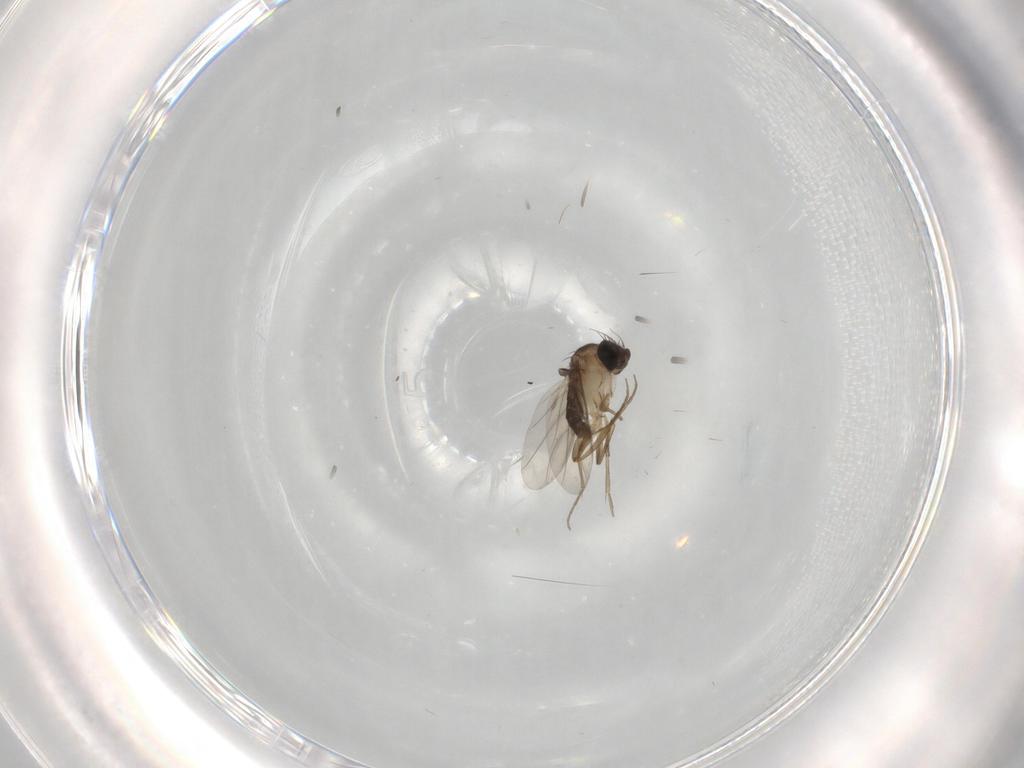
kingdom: Animalia
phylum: Arthropoda
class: Insecta
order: Diptera
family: Phoridae
